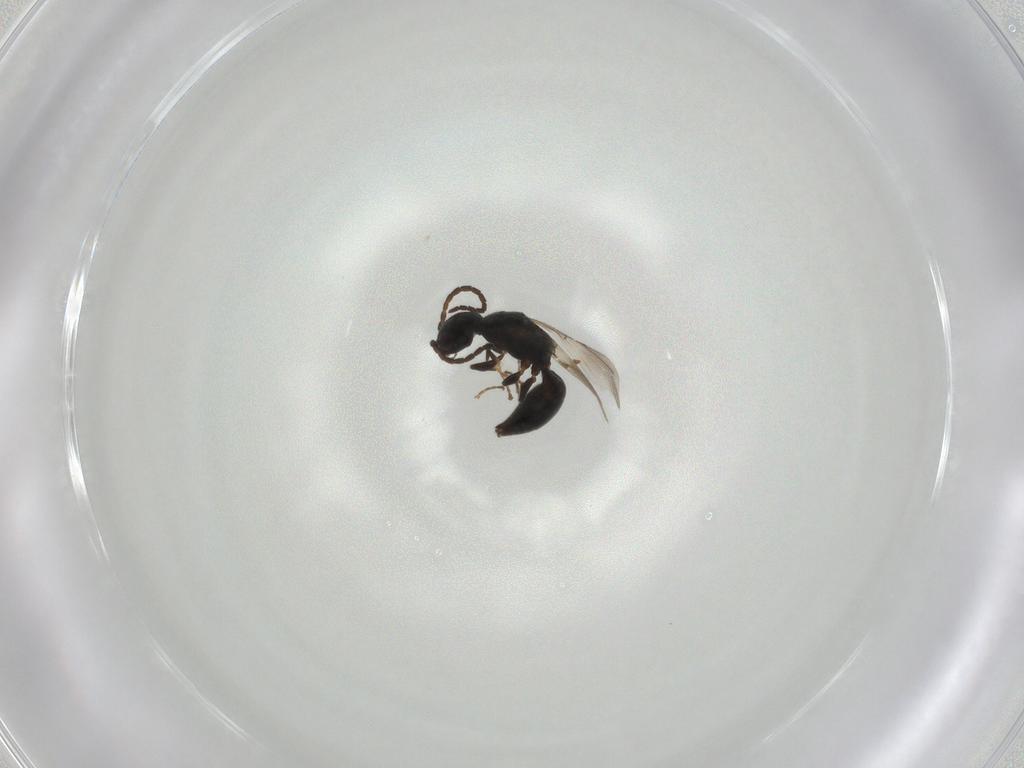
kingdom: Animalia
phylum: Arthropoda
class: Insecta
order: Hymenoptera
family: Bethylidae
